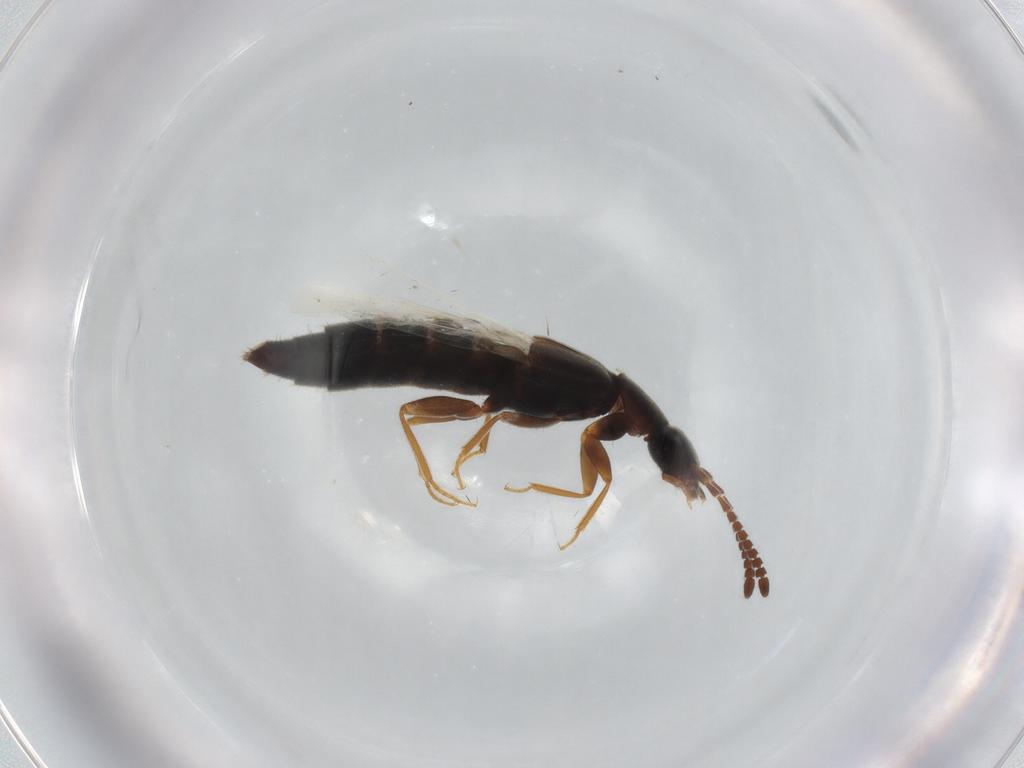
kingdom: Animalia
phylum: Arthropoda
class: Insecta
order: Coleoptera
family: Staphylinidae
